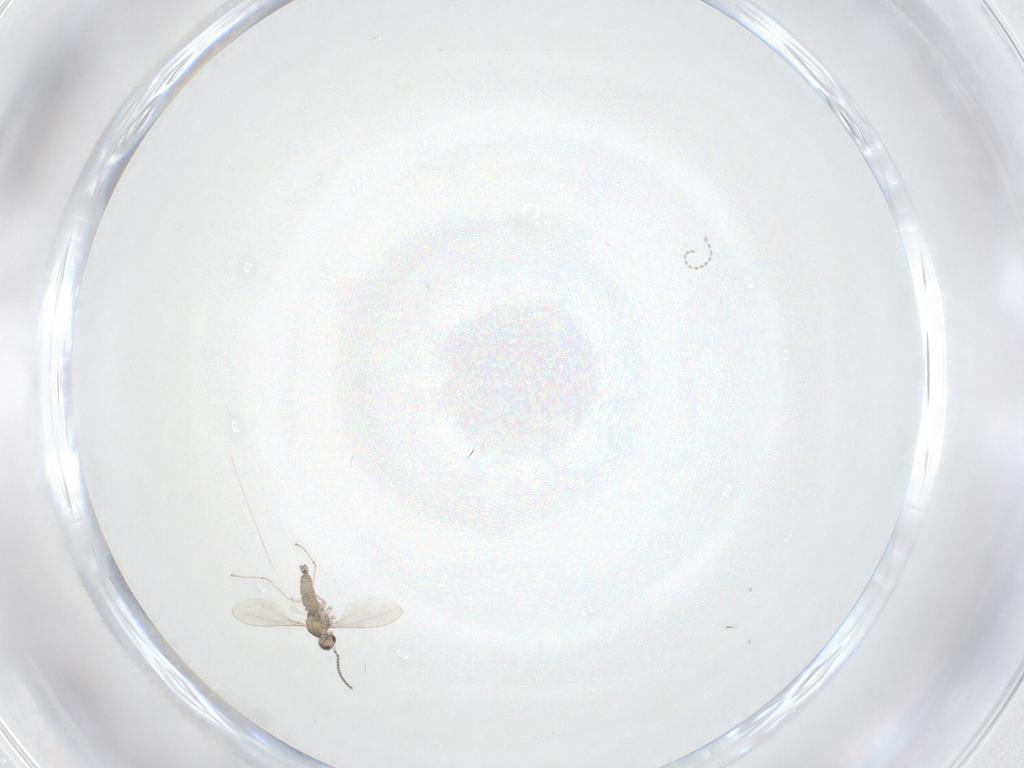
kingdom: Animalia
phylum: Arthropoda
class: Insecta
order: Diptera
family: Cecidomyiidae
